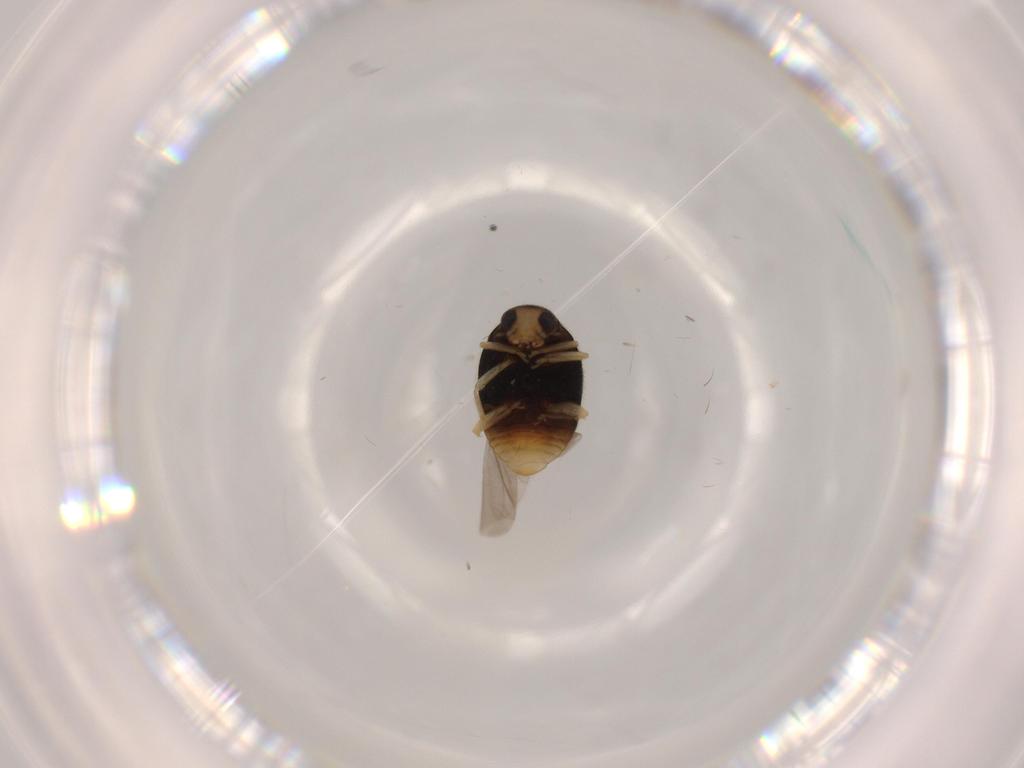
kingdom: Animalia
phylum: Arthropoda
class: Insecta
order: Coleoptera
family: Coccinellidae
